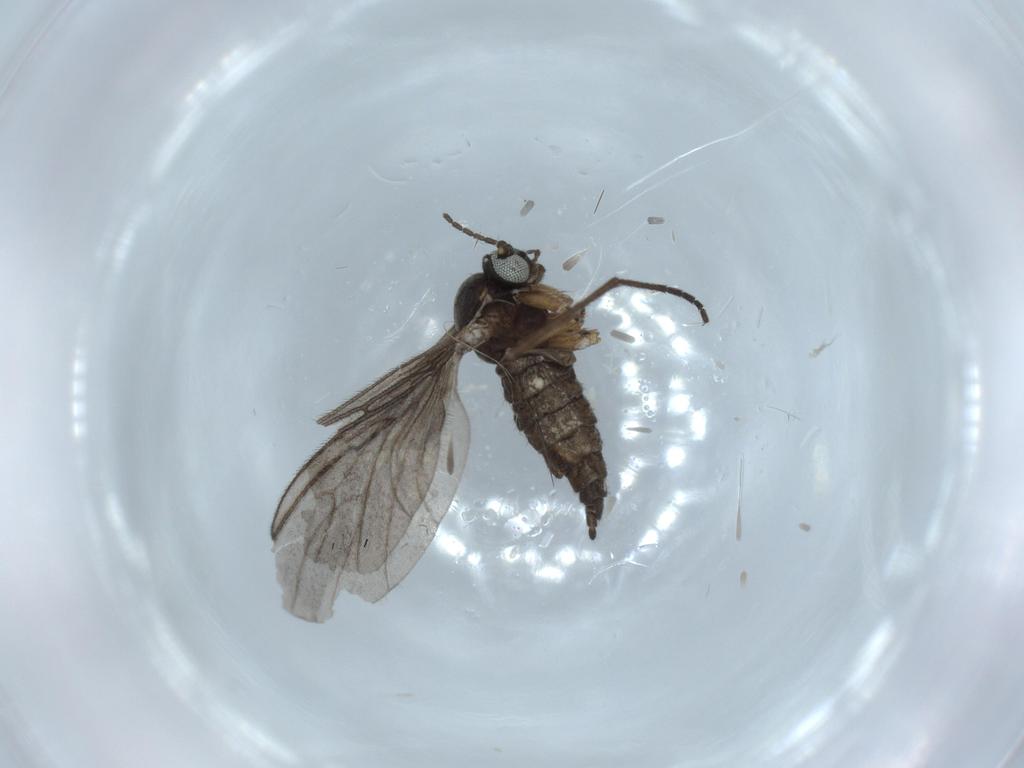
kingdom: Animalia
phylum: Arthropoda
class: Insecta
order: Diptera
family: Sciaridae
